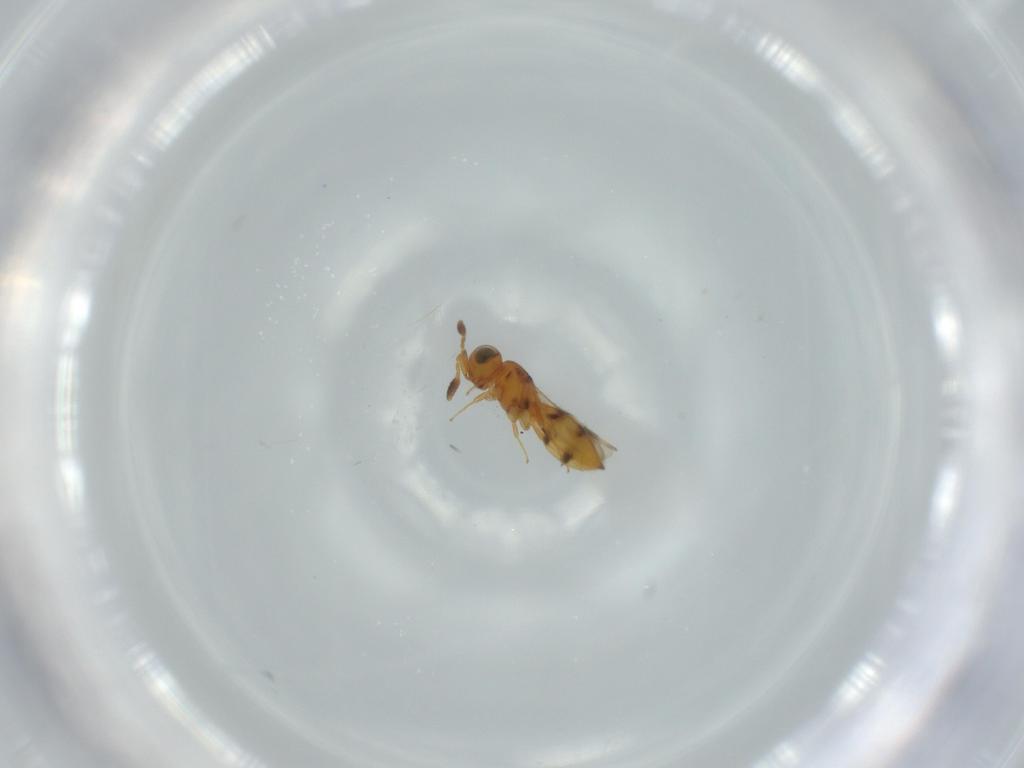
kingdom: Animalia
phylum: Arthropoda
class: Insecta
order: Hymenoptera
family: Scelionidae
